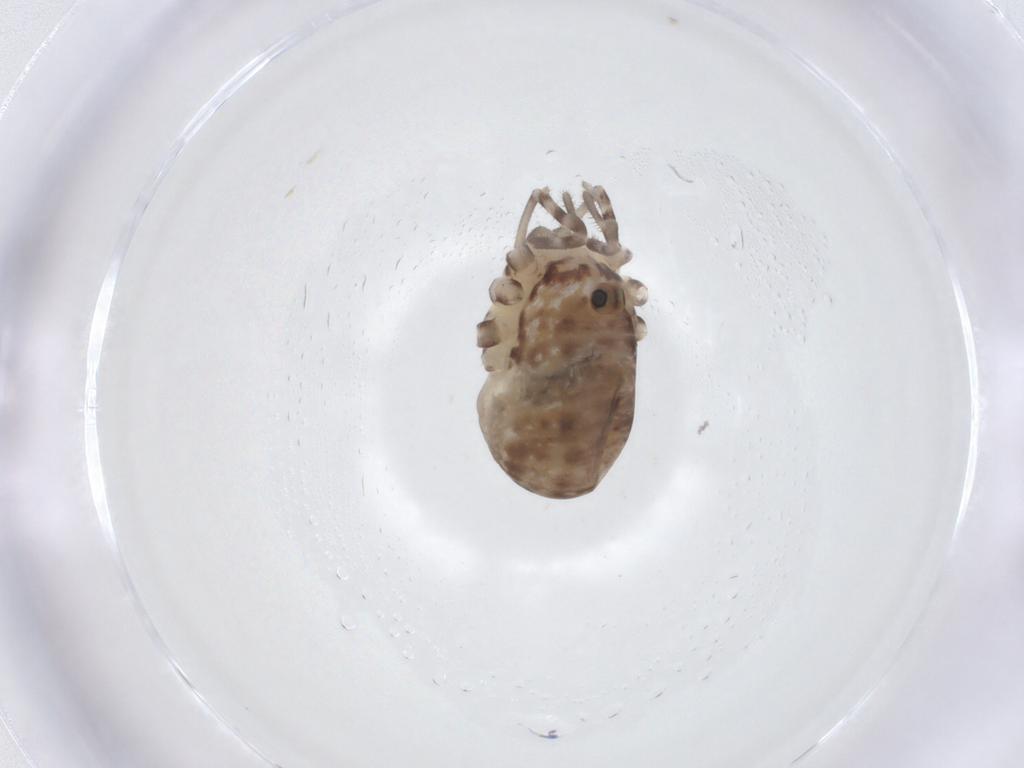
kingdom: Animalia
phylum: Arthropoda
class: Arachnida
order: Opiliones
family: Sclerosomatidae
